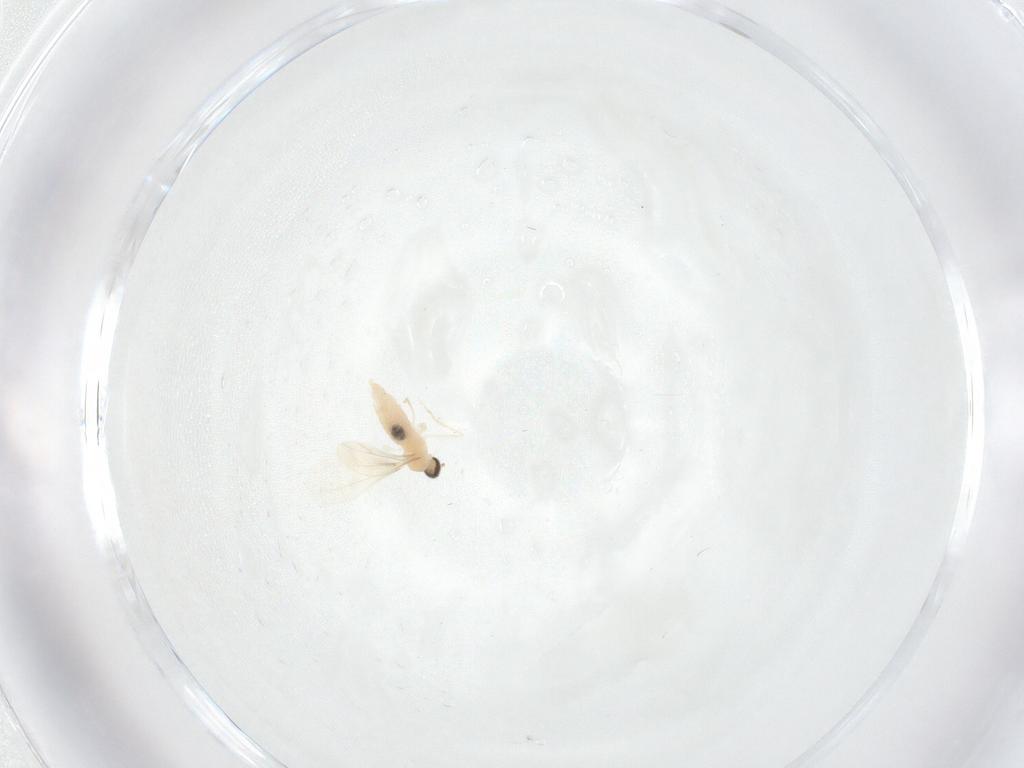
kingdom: Animalia
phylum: Arthropoda
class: Insecta
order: Diptera
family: Cecidomyiidae
